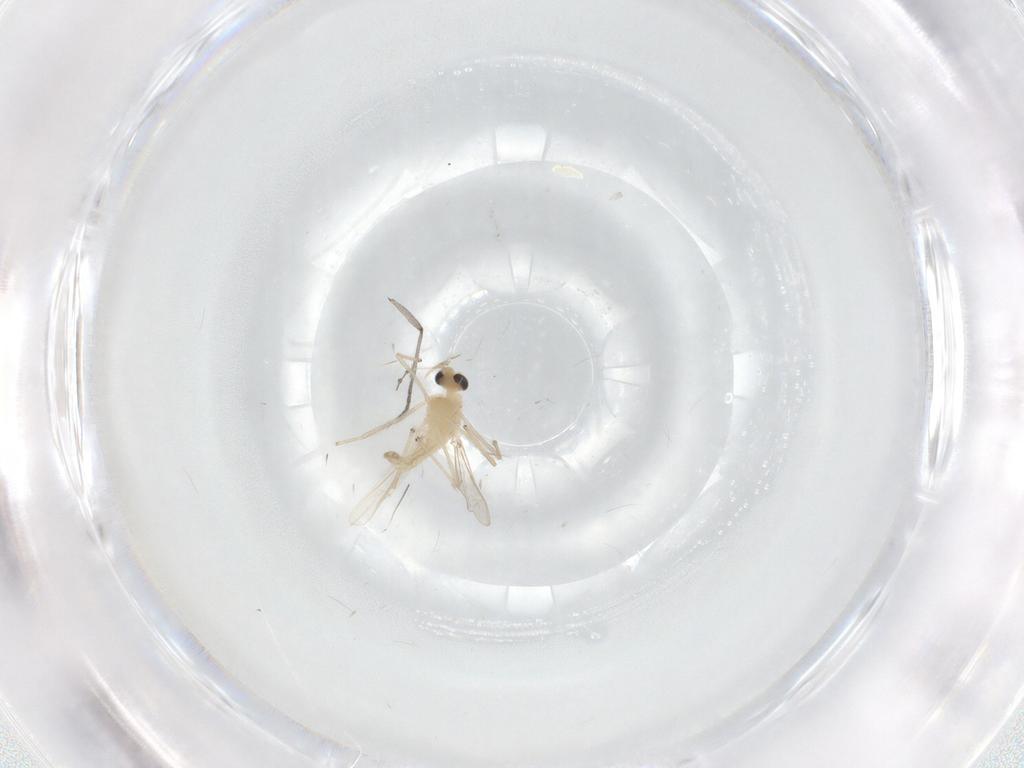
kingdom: Animalia
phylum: Arthropoda
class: Insecta
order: Diptera
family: Chironomidae
